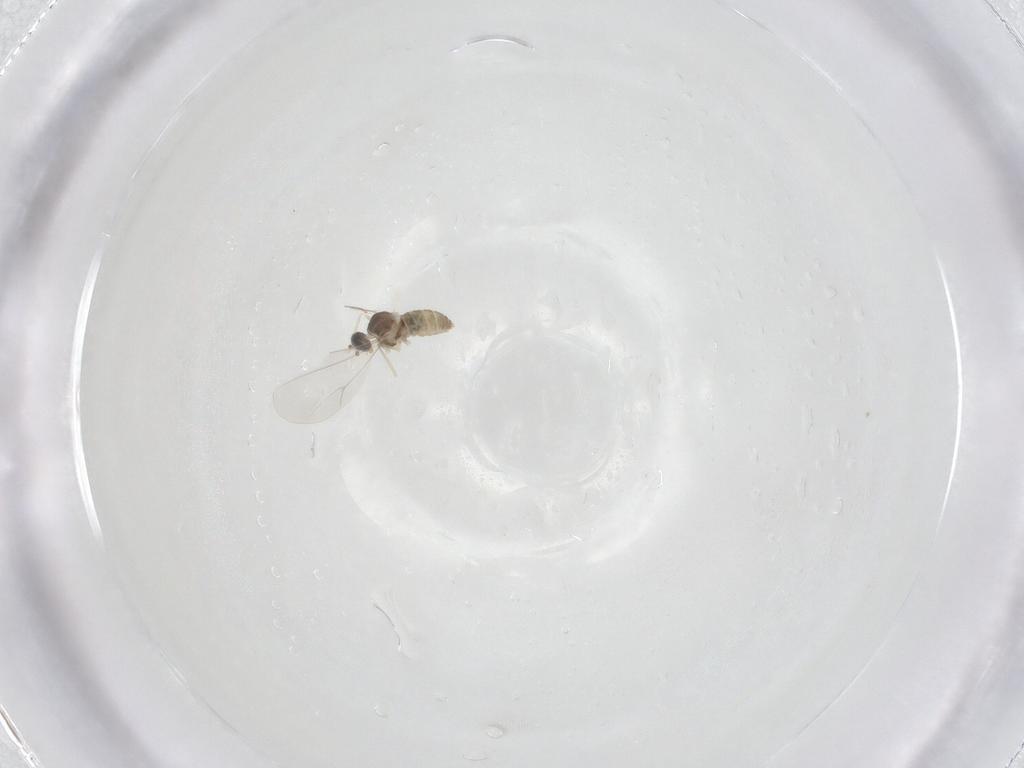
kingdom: Animalia
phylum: Arthropoda
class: Insecta
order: Diptera
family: Cecidomyiidae
